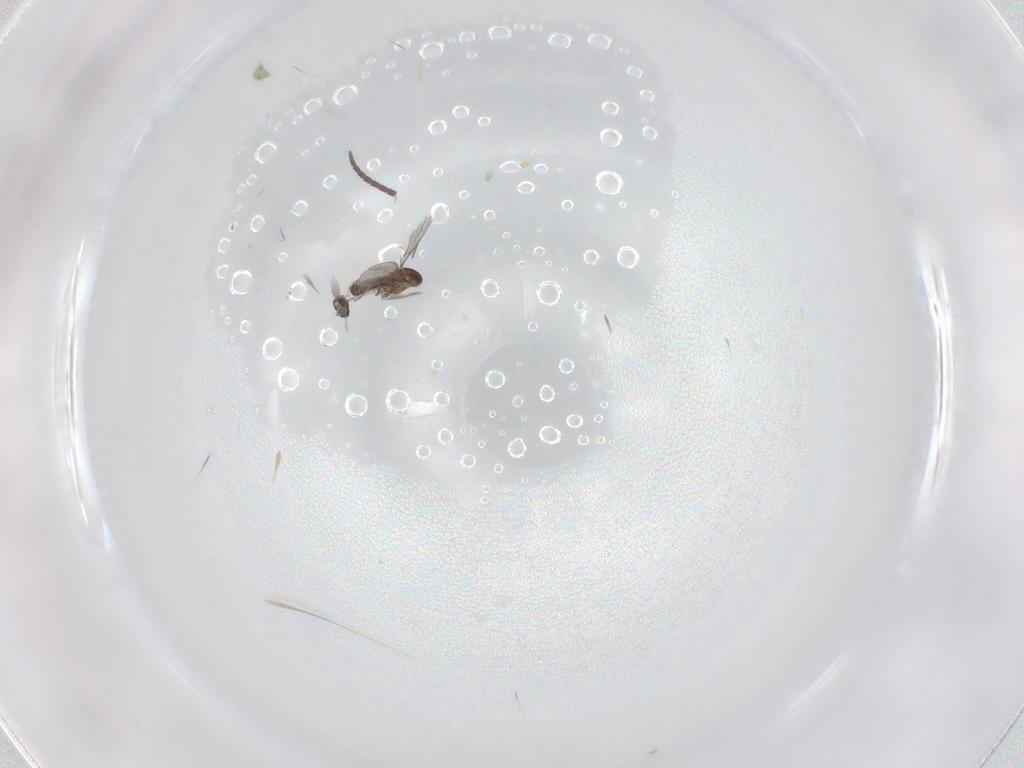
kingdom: Animalia
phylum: Arthropoda
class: Insecta
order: Diptera
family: Sciaridae
